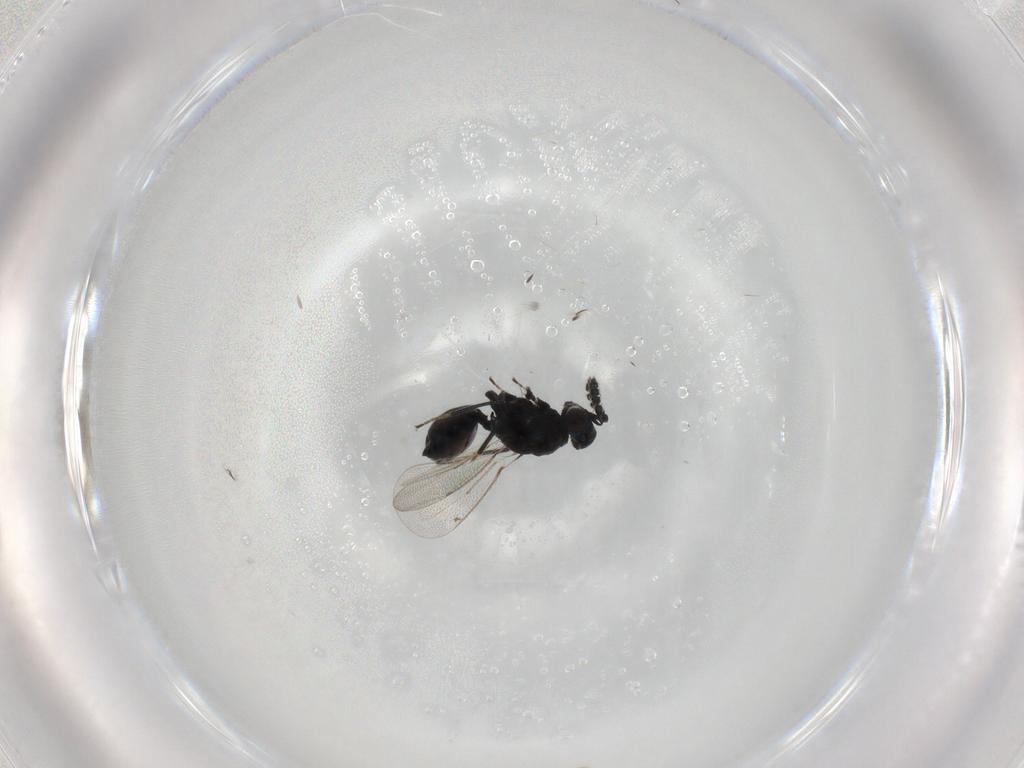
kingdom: Animalia
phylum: Arthropoda
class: Insecta
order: Hymenoptera
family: Eulophidae
